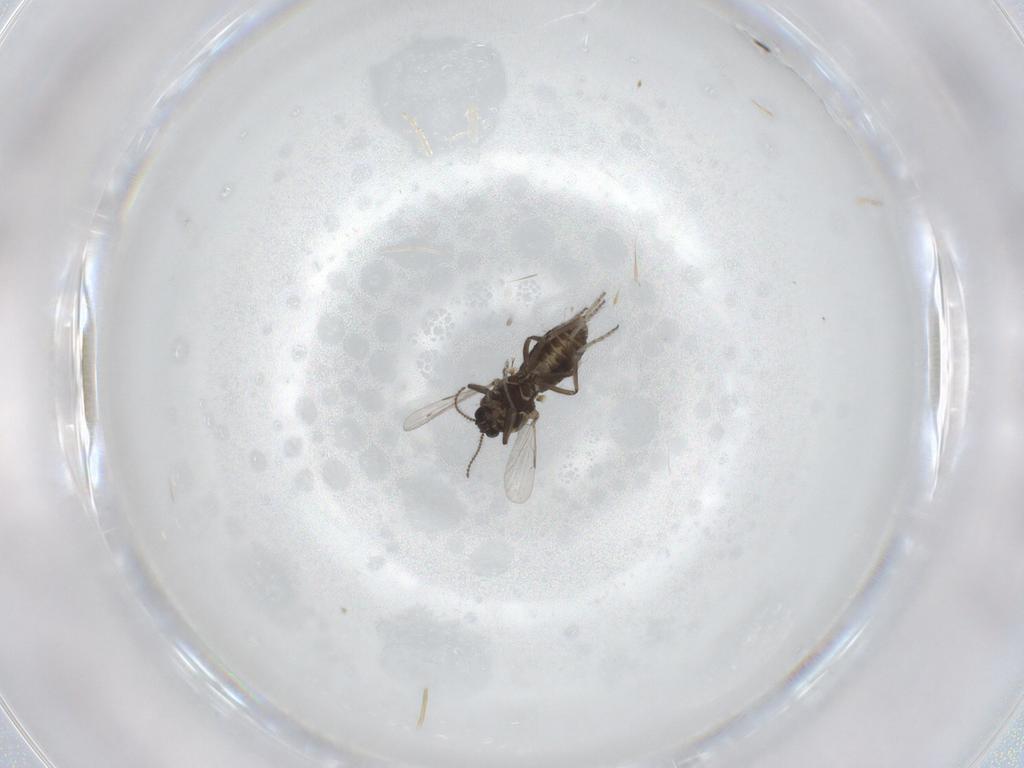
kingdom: Animalia
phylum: Arthropoda
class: Insecta
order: Diptera
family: Ceratopogonidae
